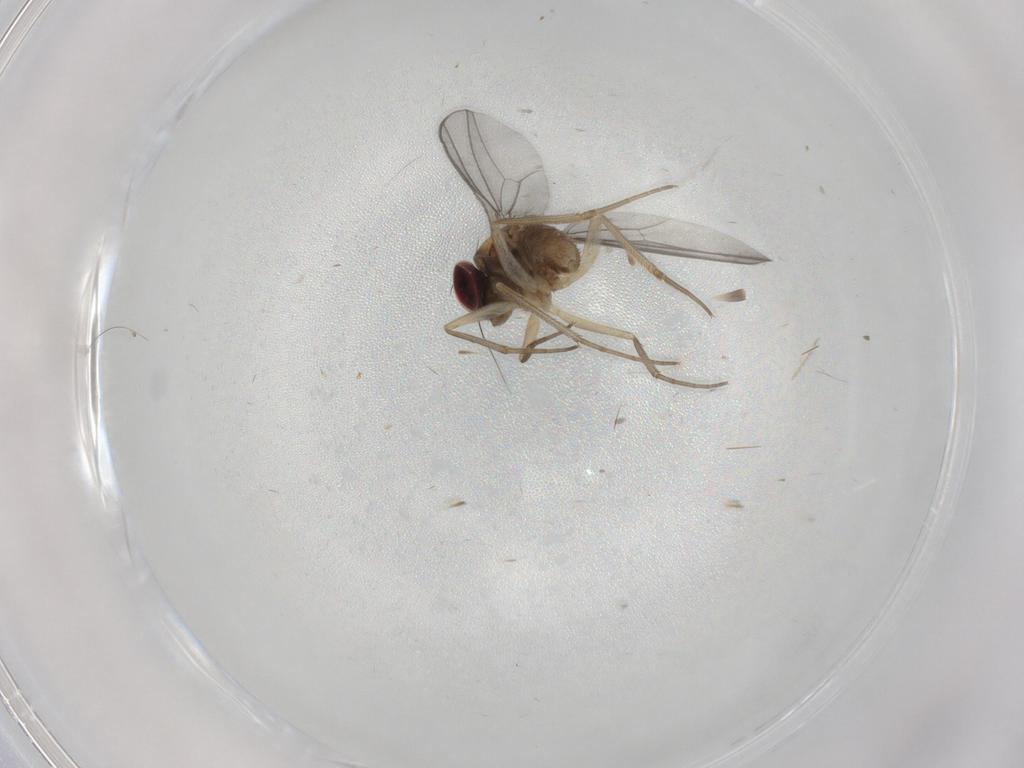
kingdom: Animalia
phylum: Arthropoda
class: Insecta
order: Diptera
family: Dolichopodidae
